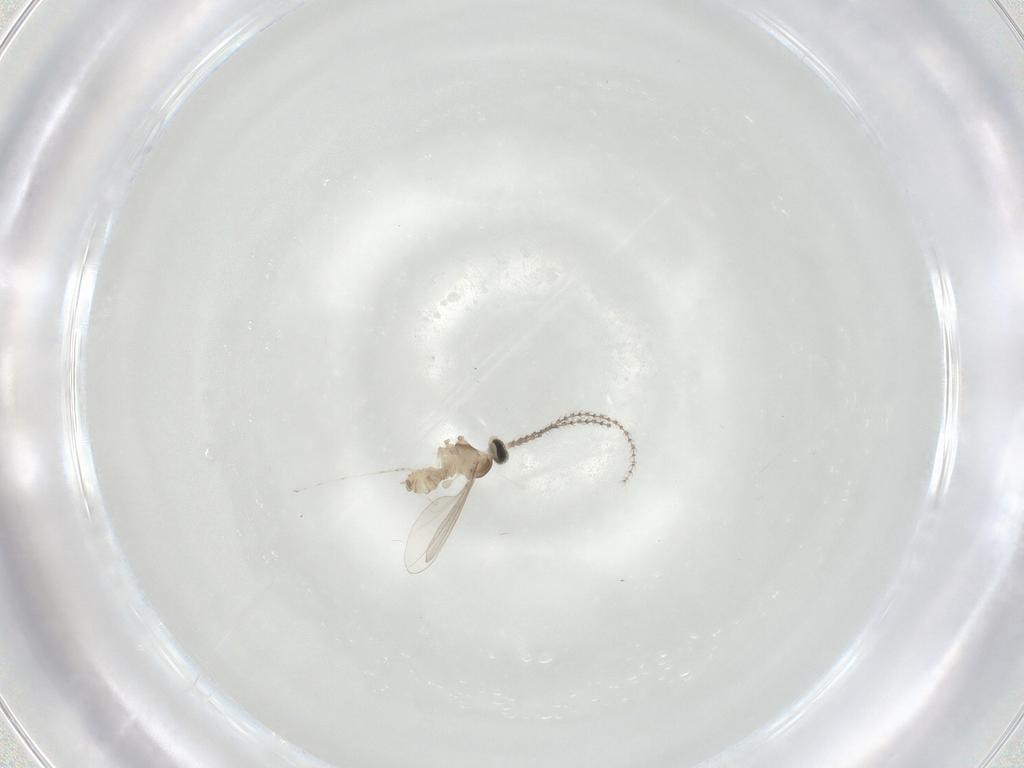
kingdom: Animalia
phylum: Arthropoda
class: Insecta
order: Diptera
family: Cecidomyiidae
